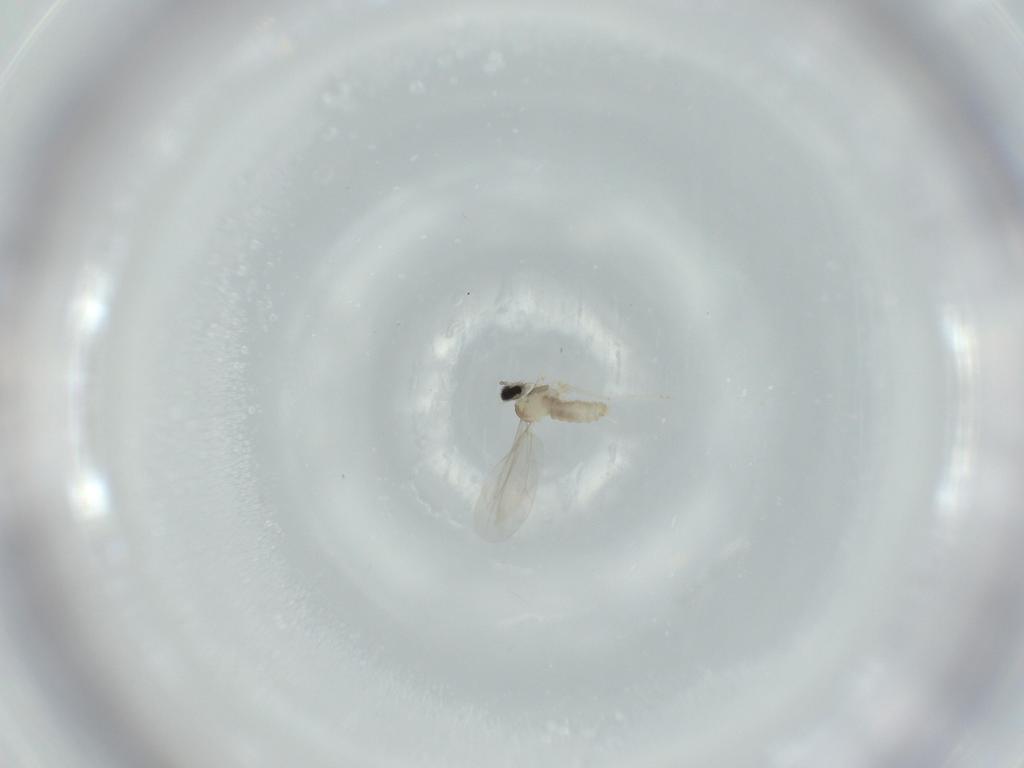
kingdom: Animalia
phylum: Arthropoda
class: Insecta
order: Diptera
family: Cecidomyiidae
